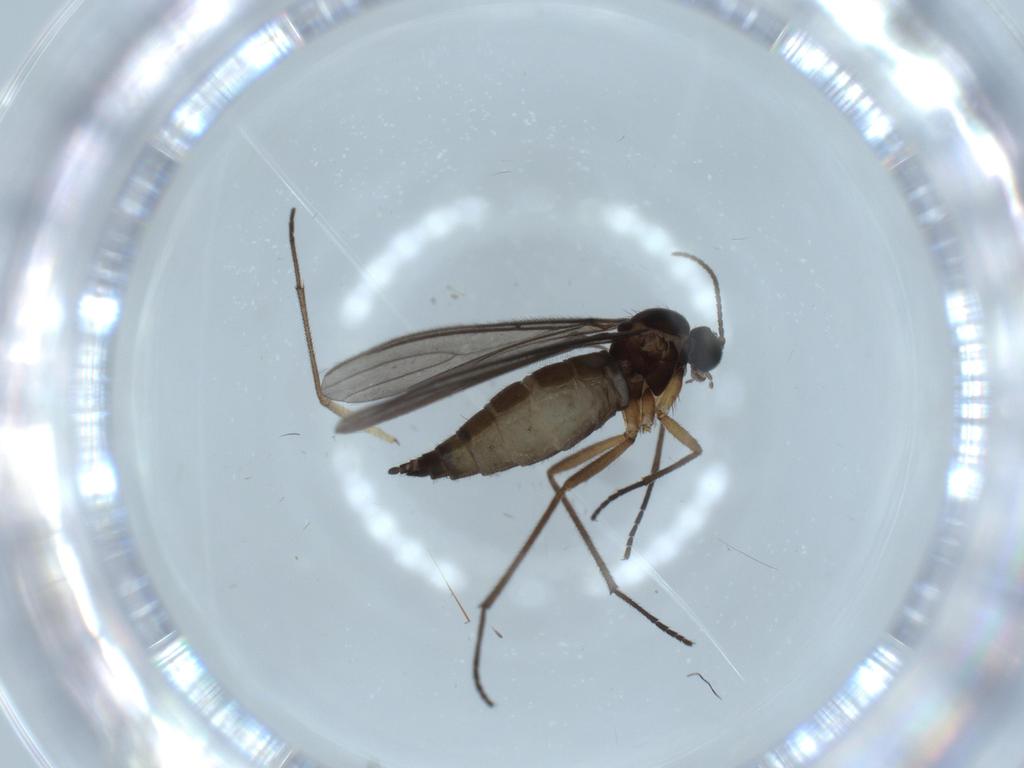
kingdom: Animalia
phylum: Arthropoda
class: Insecta
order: Diptera
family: Sciaridae
